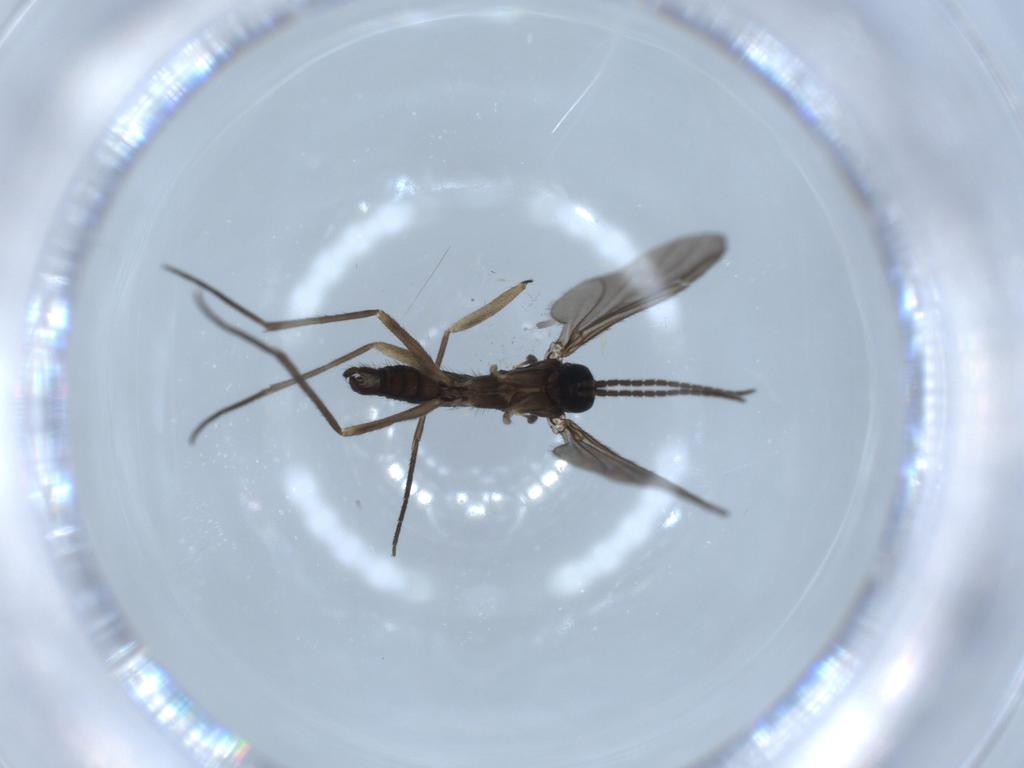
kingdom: Animalia
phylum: Arthropoda
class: Insecta
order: Diptera
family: Sciaridae
